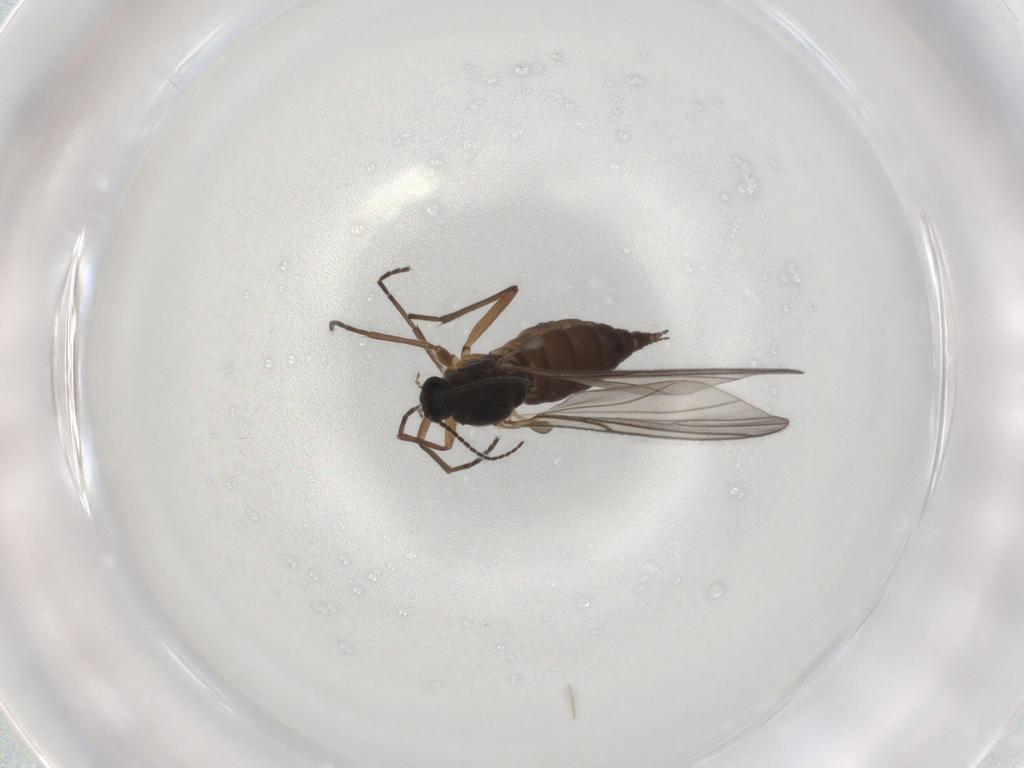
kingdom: Animalia
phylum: Arthropoda
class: Insecta
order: Diptera
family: Sciaridae
